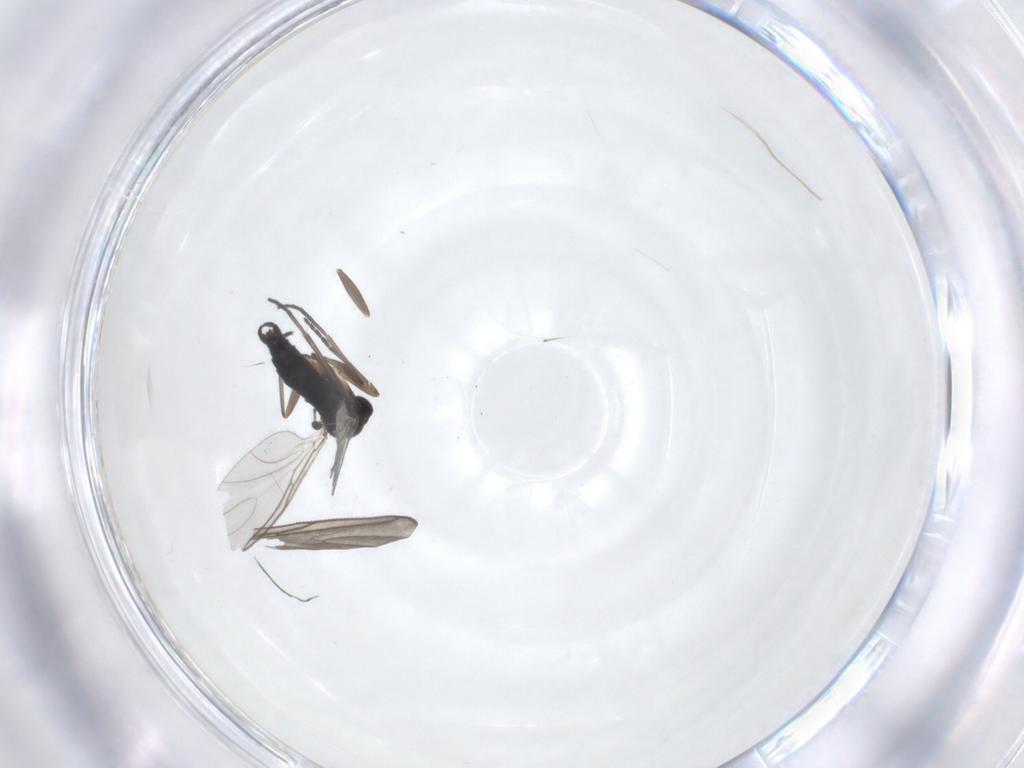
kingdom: Animalia
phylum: Arthropoda
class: Insecta
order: Diptera
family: Sciaridae
